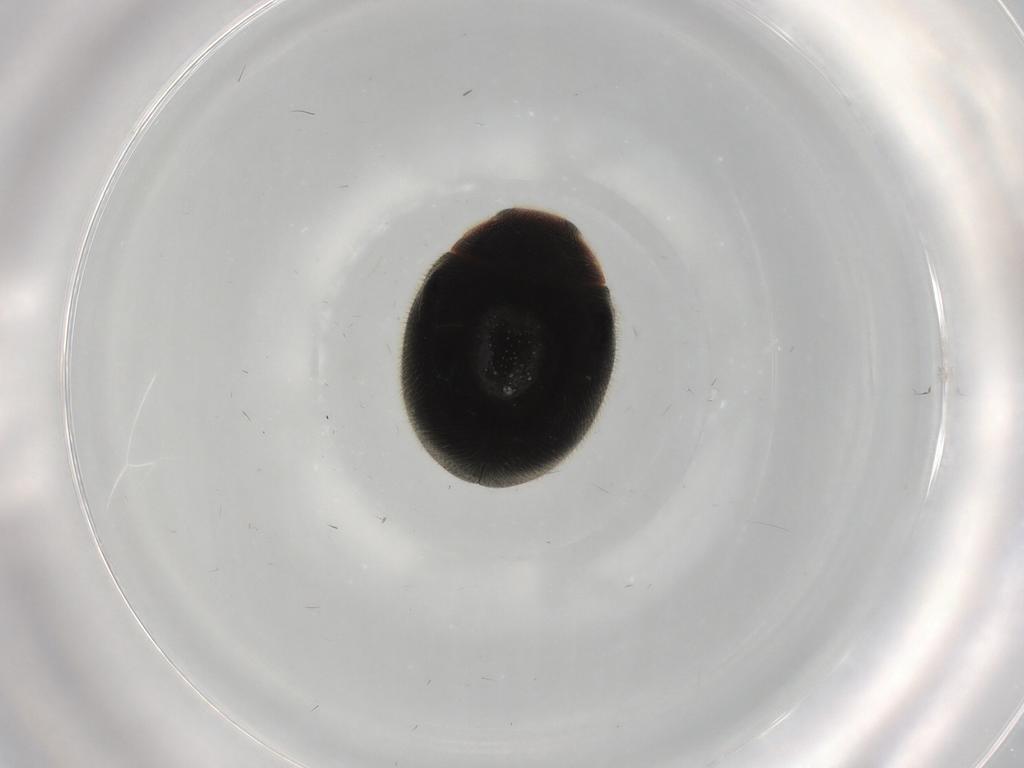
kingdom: Animalia
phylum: Arthropoda
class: Insecta
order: Coleoptera
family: Coccinellidae
